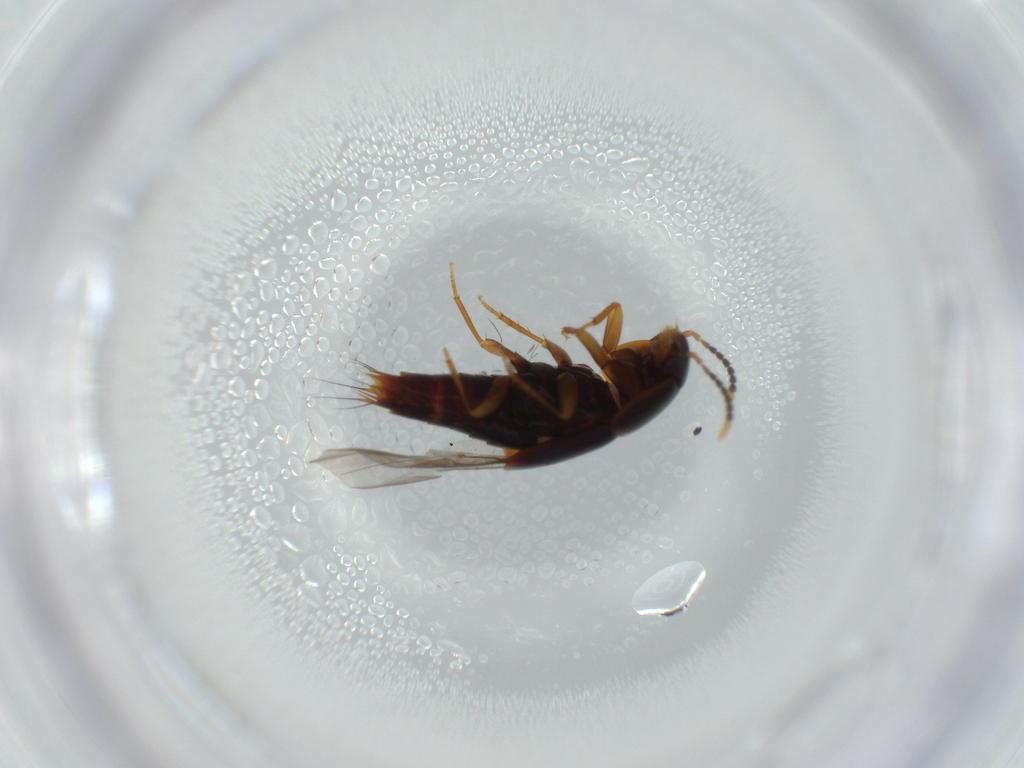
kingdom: Animalia
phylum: Arthropoda
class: Insecta
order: Coleoptera
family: Staphylinidae
